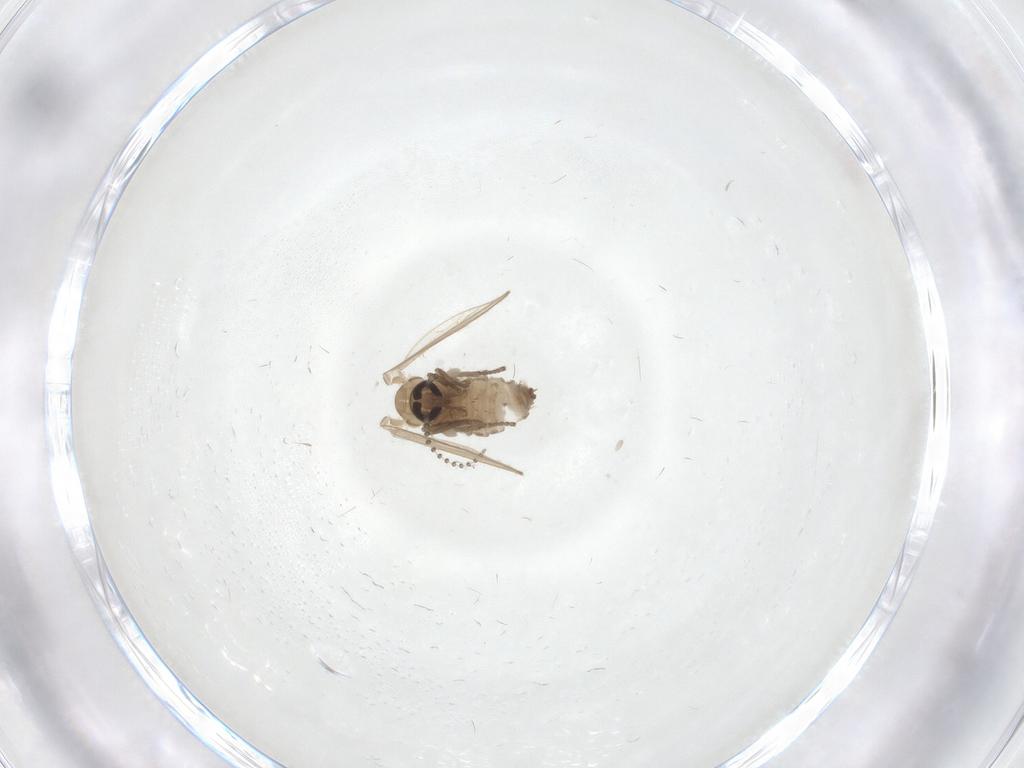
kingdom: Animalia
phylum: Arthropoda
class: Insecta
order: Diptera
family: Psychodidae
